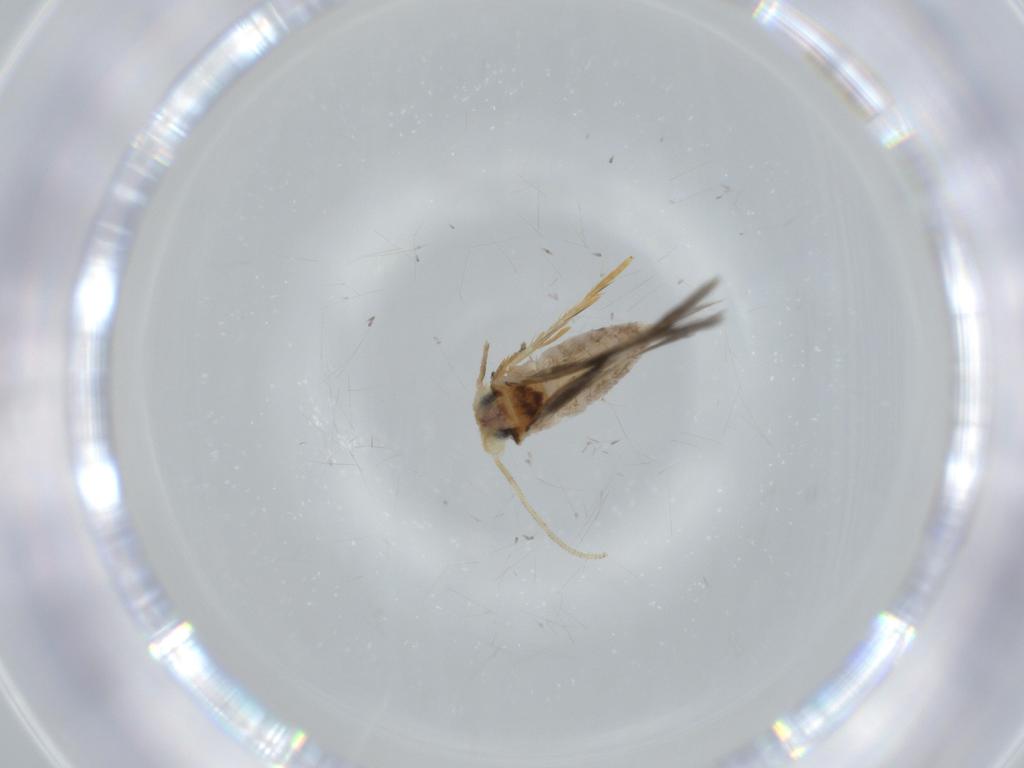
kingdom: Animalia
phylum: Arthropoda
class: Insecta
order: Lepidoptera
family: Nepticulidae
